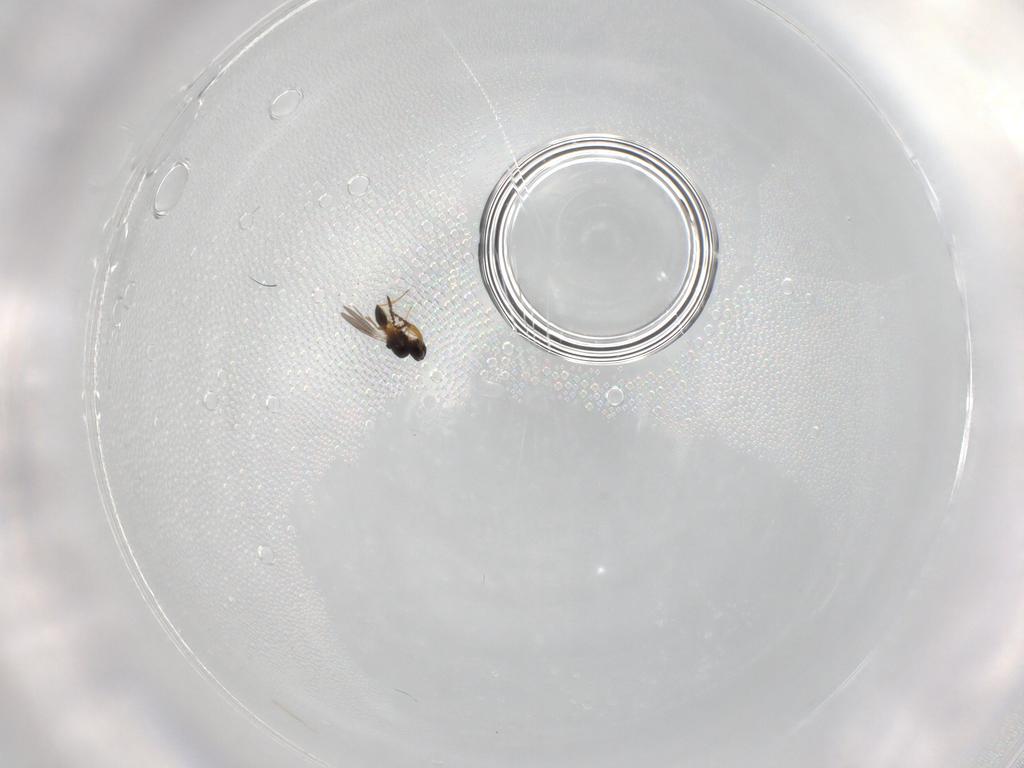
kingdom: Animalia
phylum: Arthropoda
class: Insecta
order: Hymenoptera
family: Platygastridae
